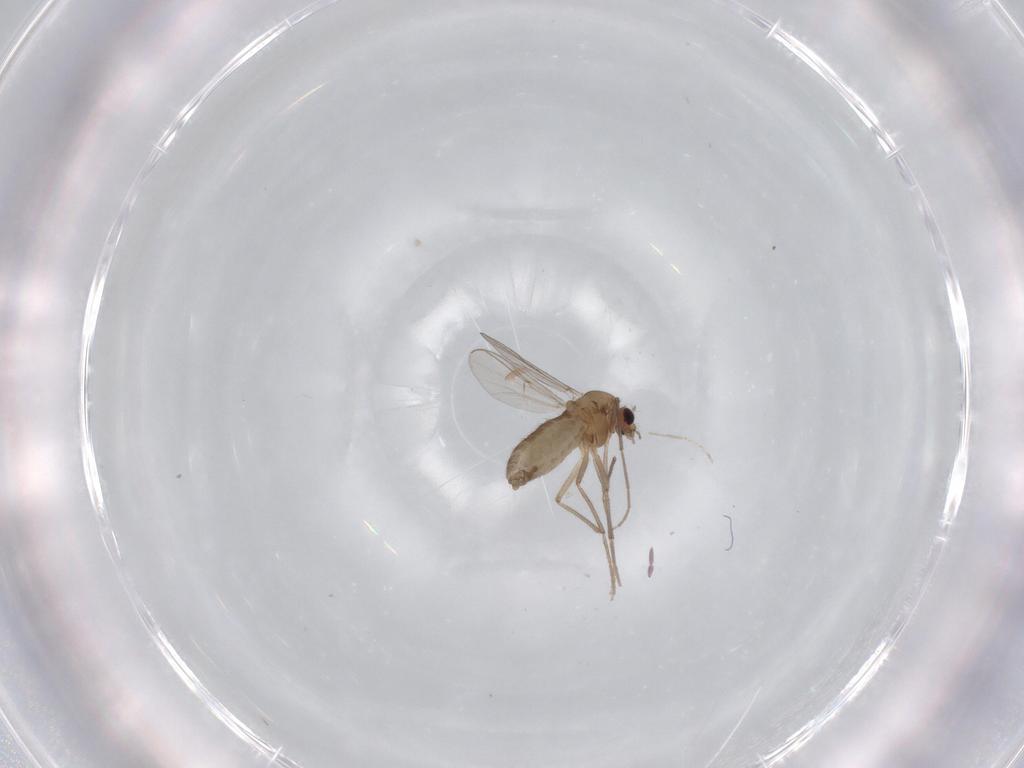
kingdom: Animalia
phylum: Arthropoda
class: Insecta
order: Diptera
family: Chironomidae
